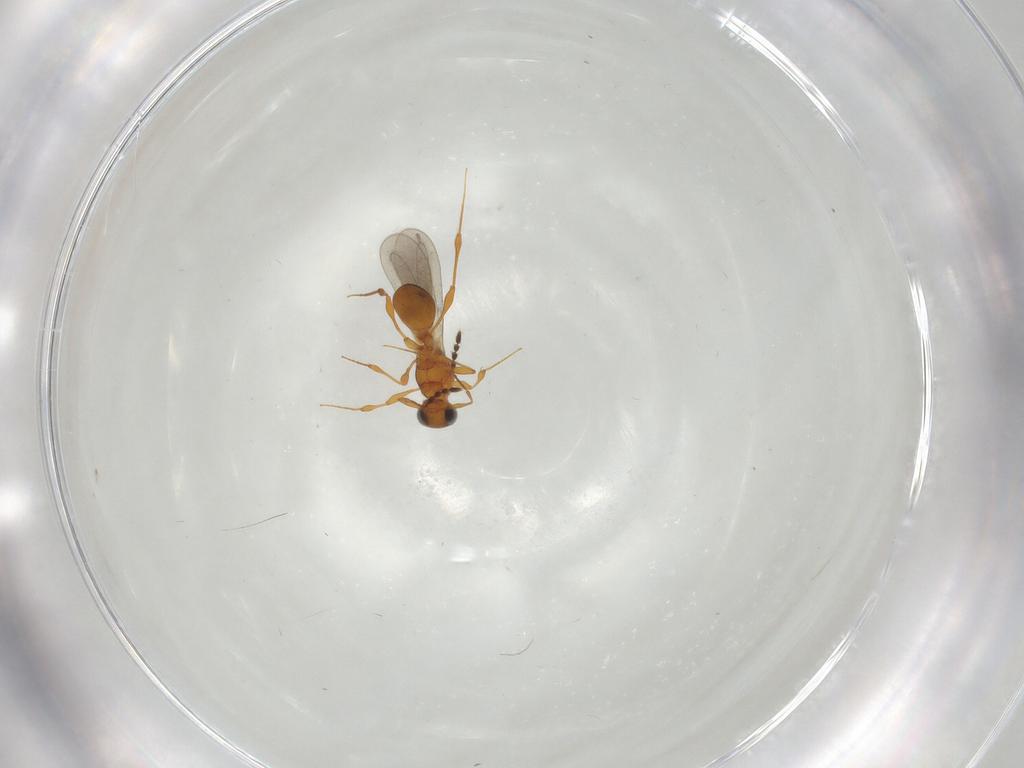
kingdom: Animalia
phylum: Arthropoda
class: Insecta
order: Hymenoptera
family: Platygastridae
